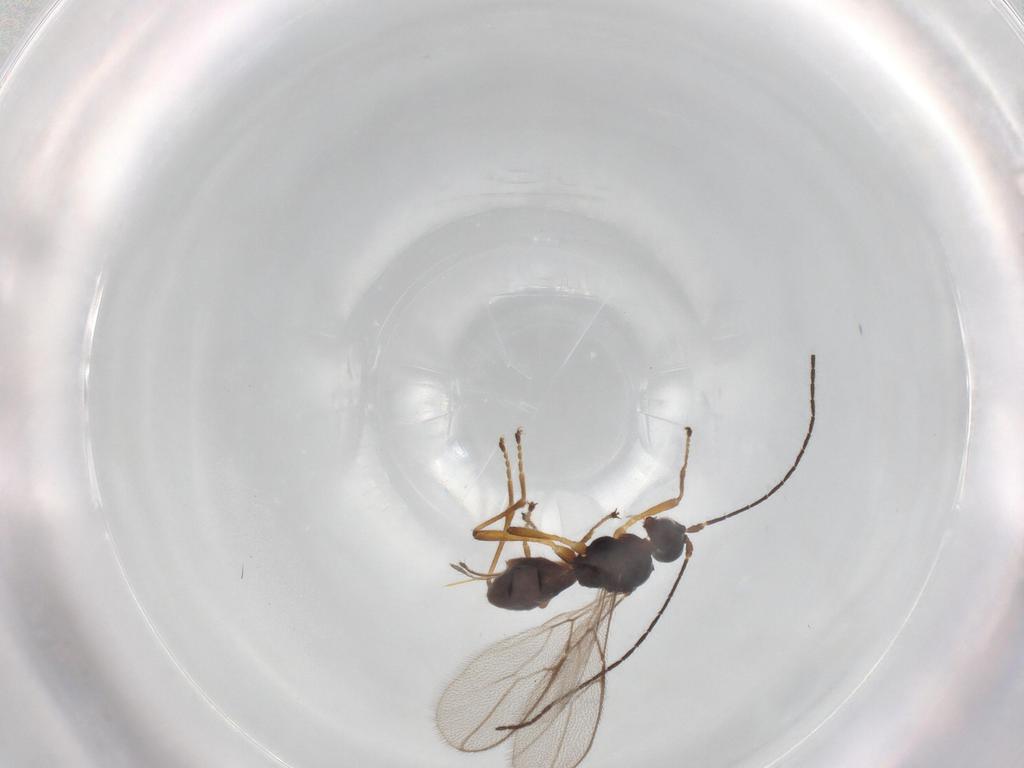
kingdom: Animalia
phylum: Arthropoda
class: Insecta
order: Hymenoptera
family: Braconidae
